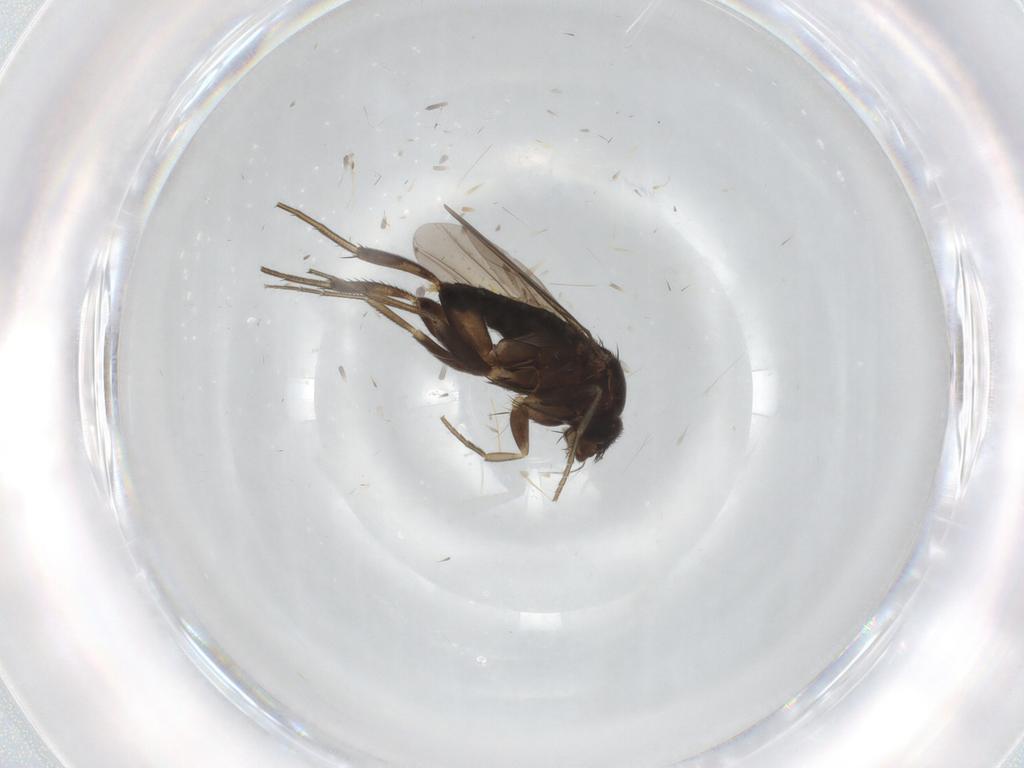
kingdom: Animalia
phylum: Arthropoda
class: Insecta
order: Diptera
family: Phoridae
